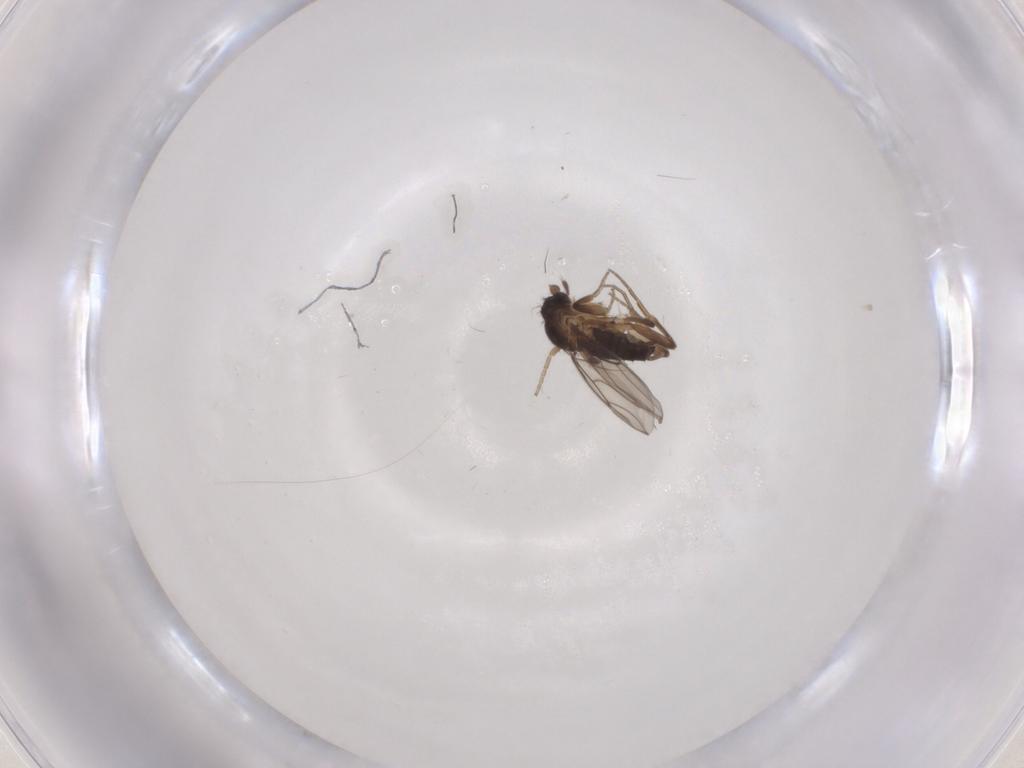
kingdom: Animalia
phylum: Arthropoda
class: Insecta
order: Diptera
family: Phoridae
